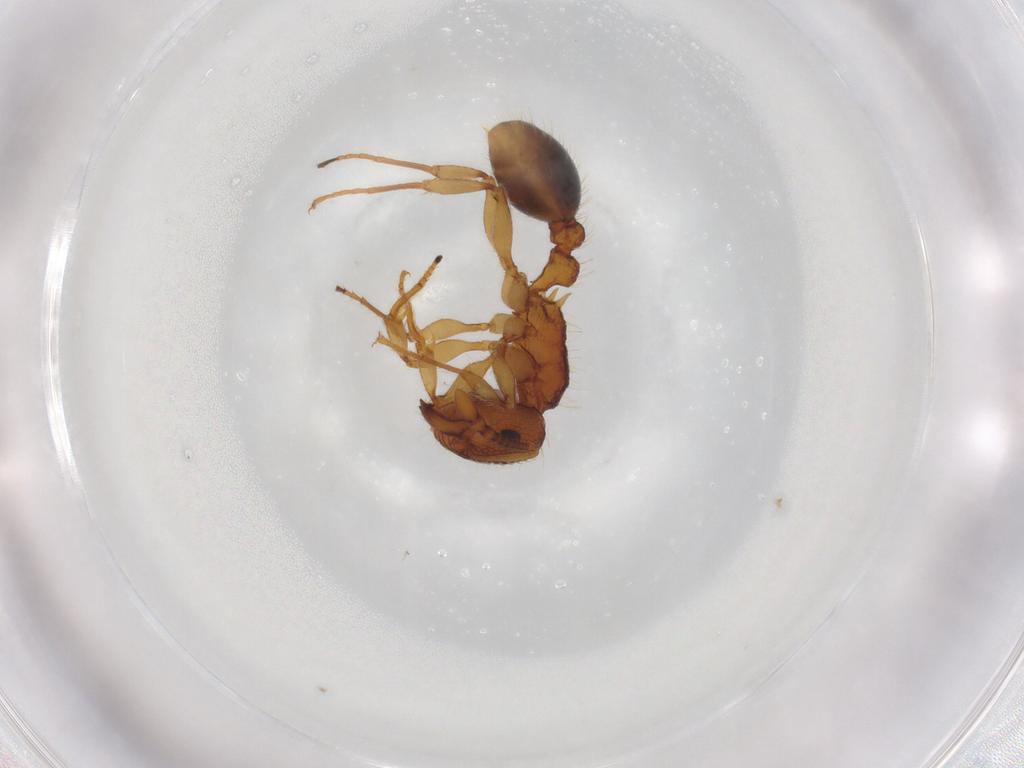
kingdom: Animalia
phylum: Arthropoda
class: Insecta
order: Hymenoptera
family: Formicidae
